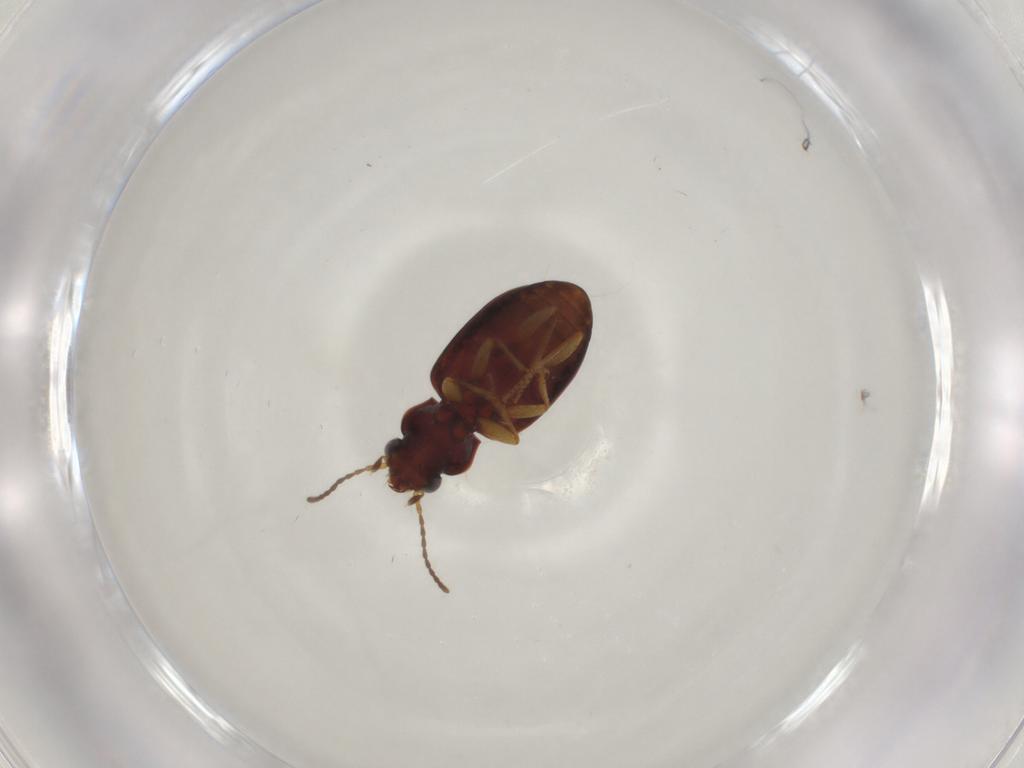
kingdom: Animalia
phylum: Arthropoda
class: Insecta
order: Coleoptera
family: Carabidae
